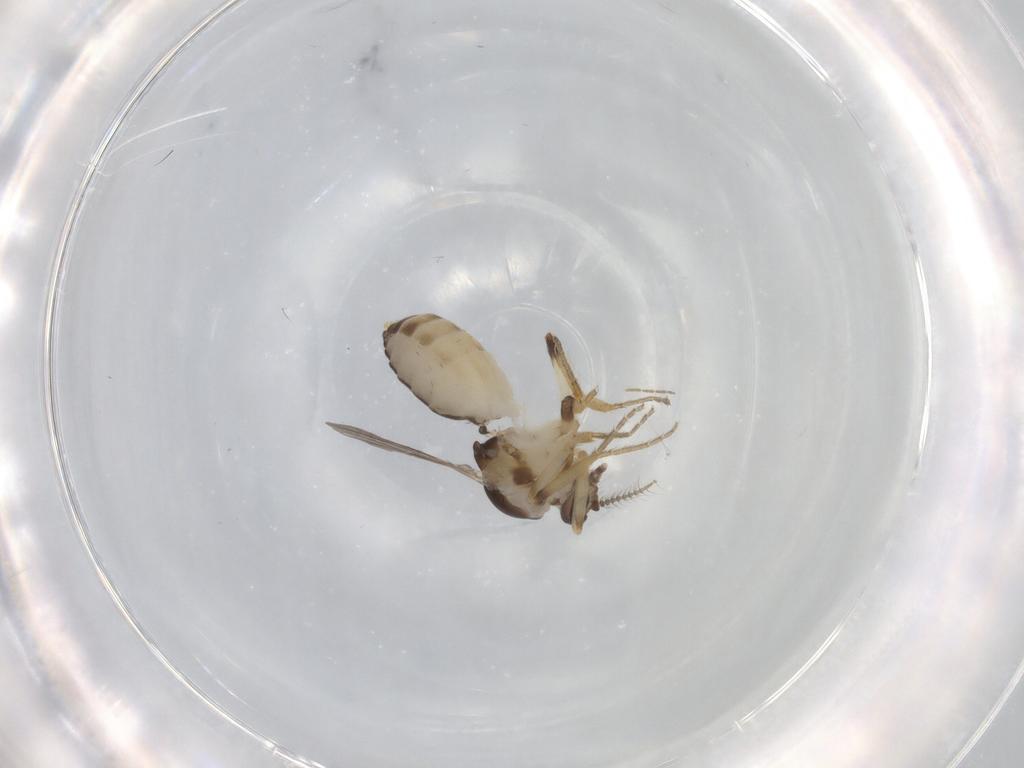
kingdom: Animalia
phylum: Arthropoda
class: Insecta
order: Diptera
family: Ceratopogonidae
